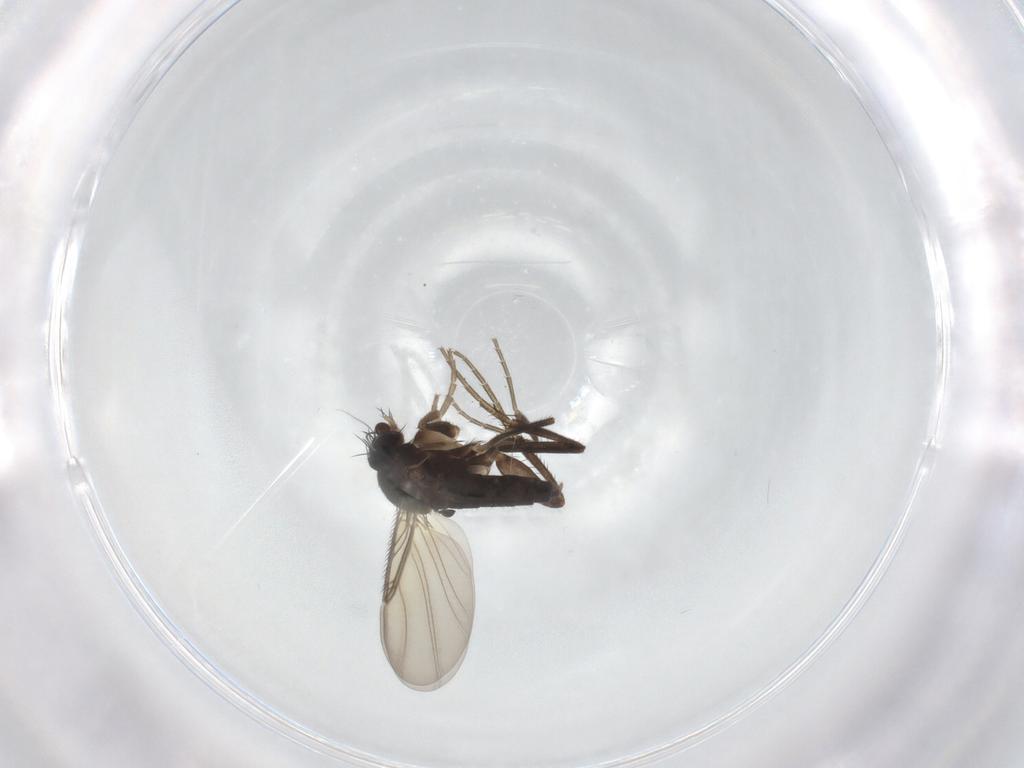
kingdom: Animalia
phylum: Arthropoda
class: Insecta
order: Diptera
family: Phoridae
